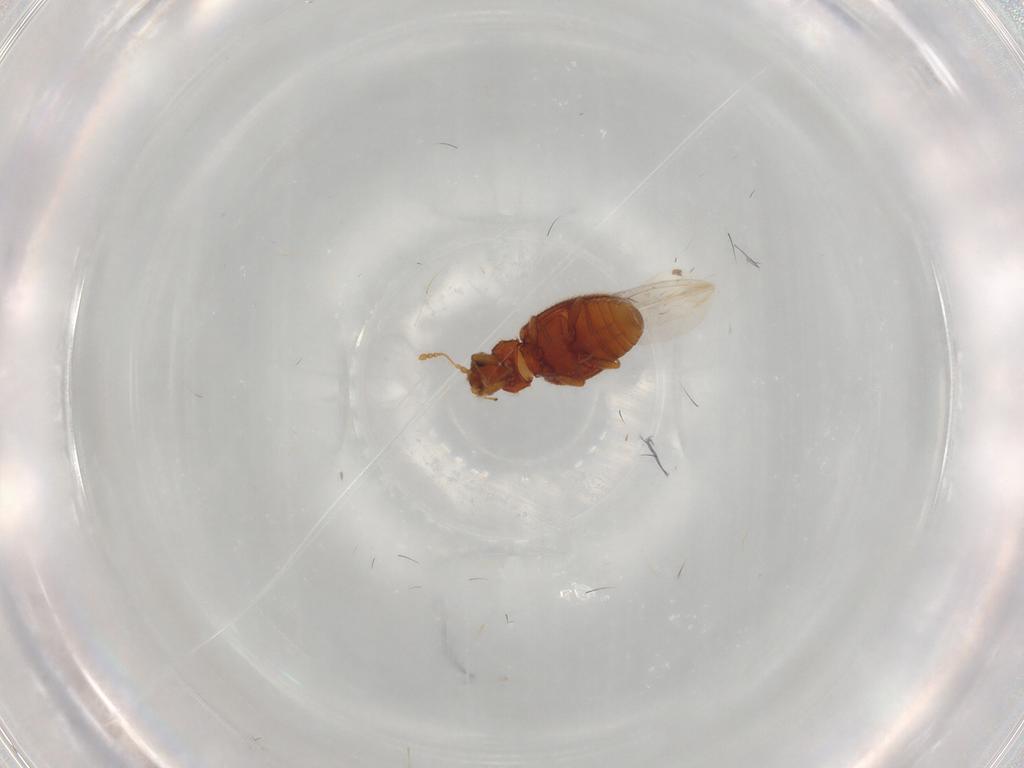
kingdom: Animalia
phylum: Arthropoda
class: Insecta
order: Coleoptera
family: Latridiidae
